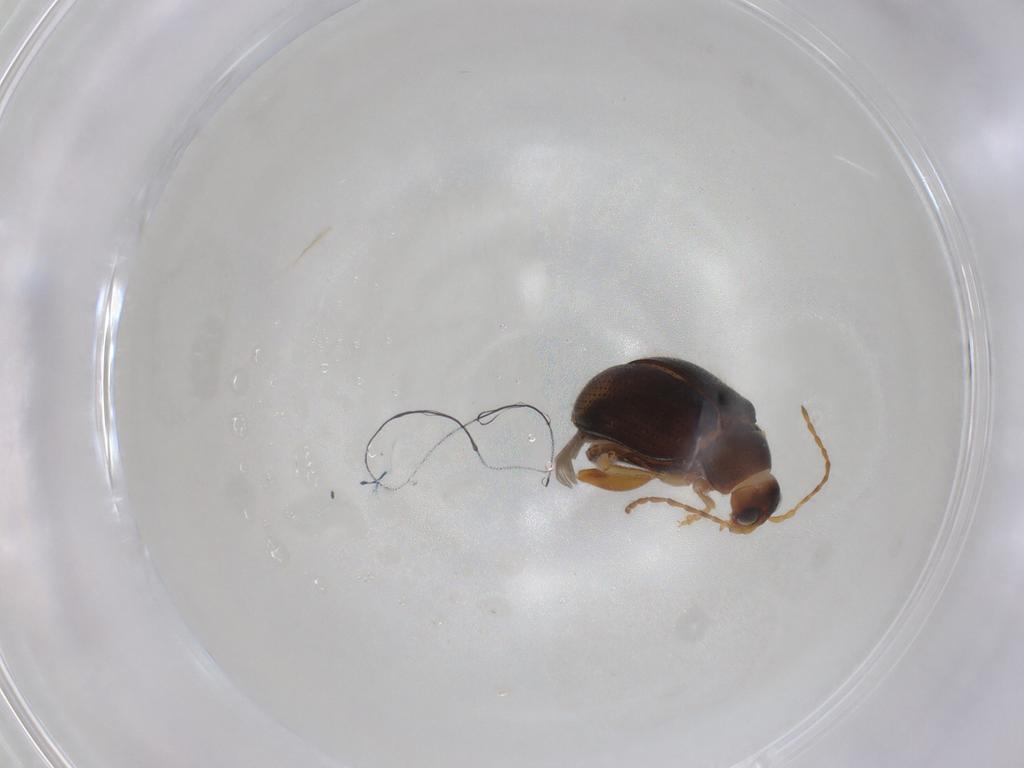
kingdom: Animalia
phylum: Arthropoda
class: Insecta
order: Coleoptera
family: Chrysomelidae
